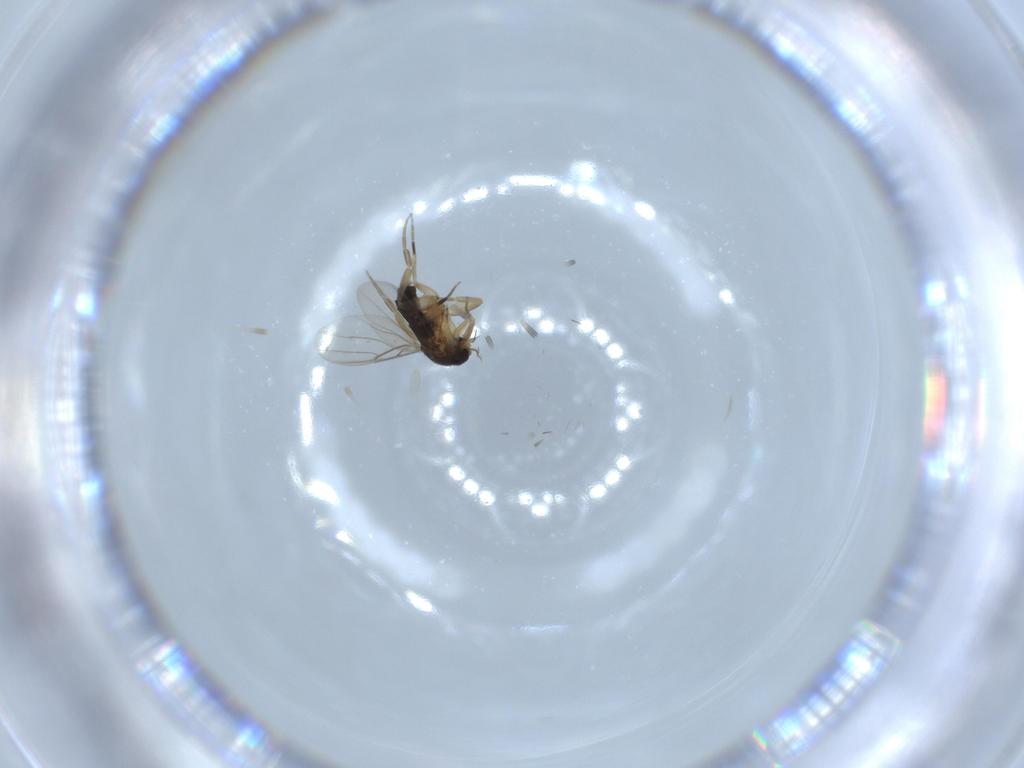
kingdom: Animalia
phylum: Arthropoda
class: Insecta
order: Diptera
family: Phoridae
